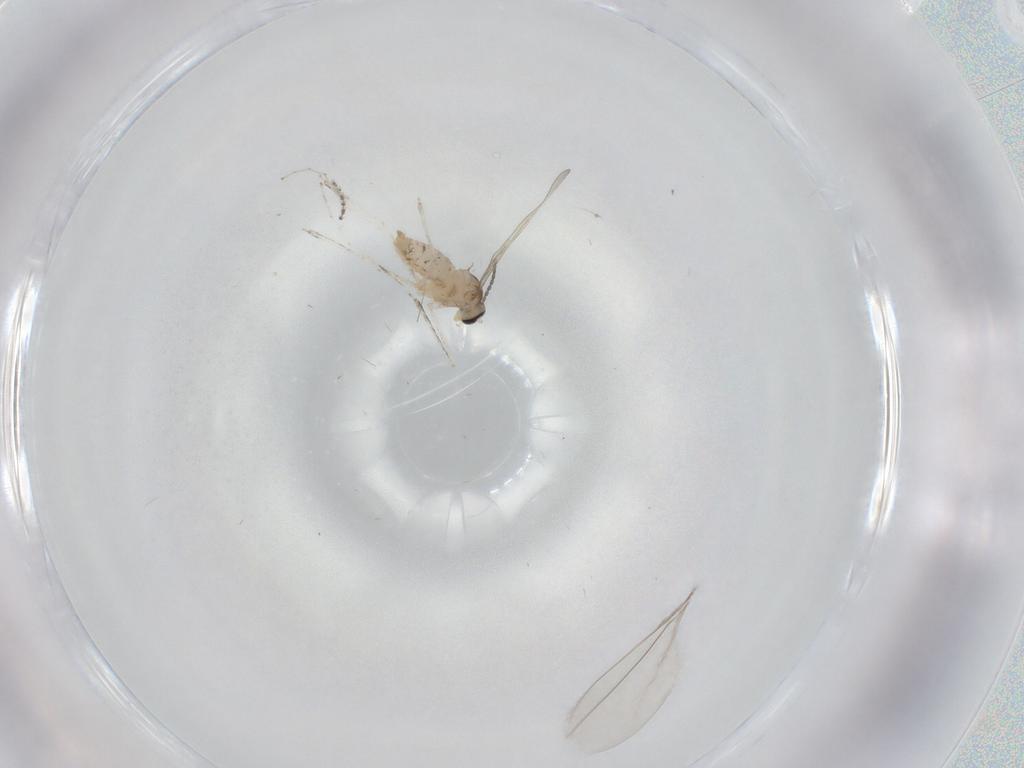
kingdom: Animalia
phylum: Arthropoda
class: Insecta
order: Diptera
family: Cecidomyiidae
